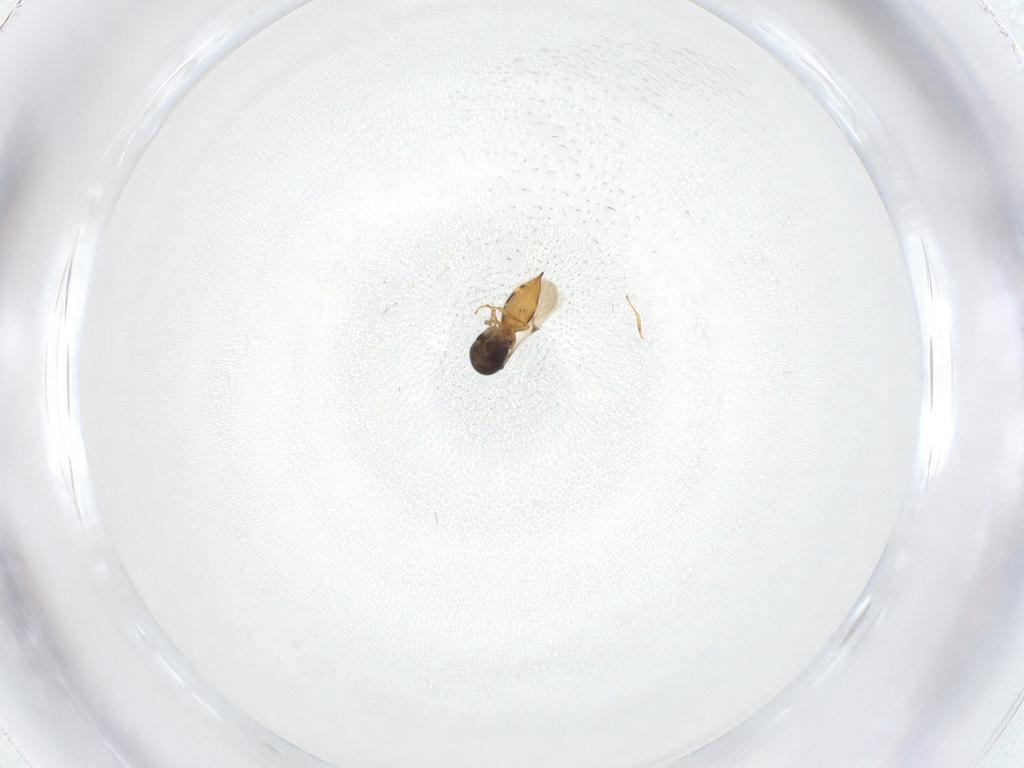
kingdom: Animalia
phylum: Arthropoda
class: Insecta
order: Hymenoptera
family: Scelionidae
